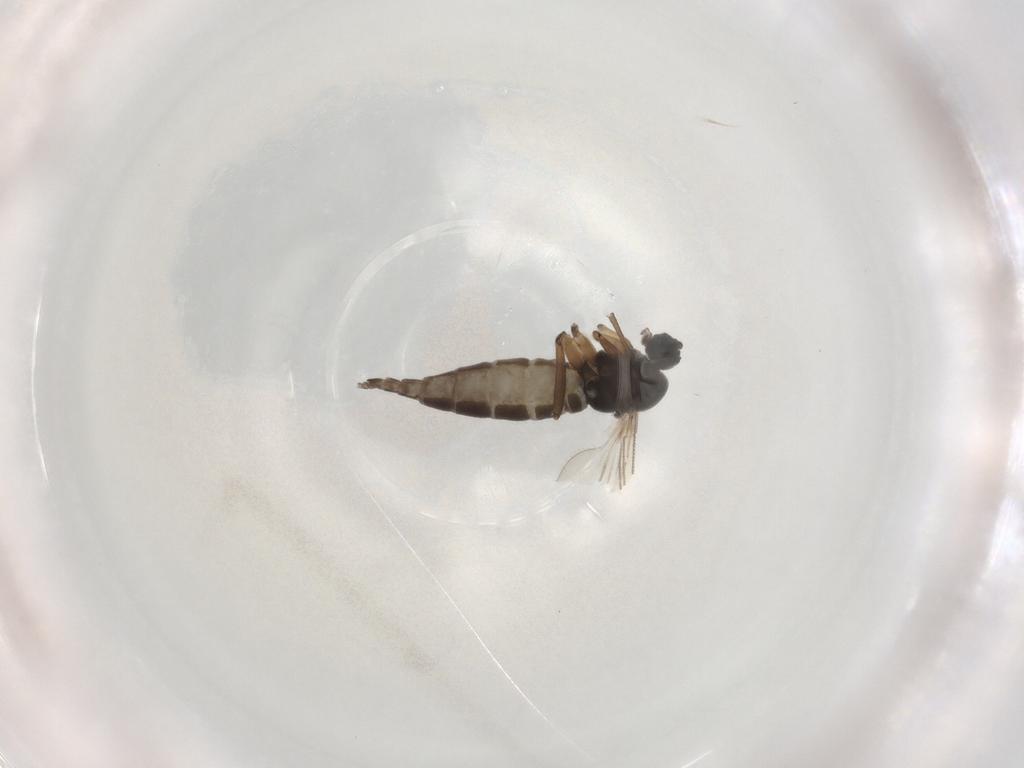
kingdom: Animalia
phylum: Arthropoda
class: Insecta
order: Diptera
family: Sciaridae
